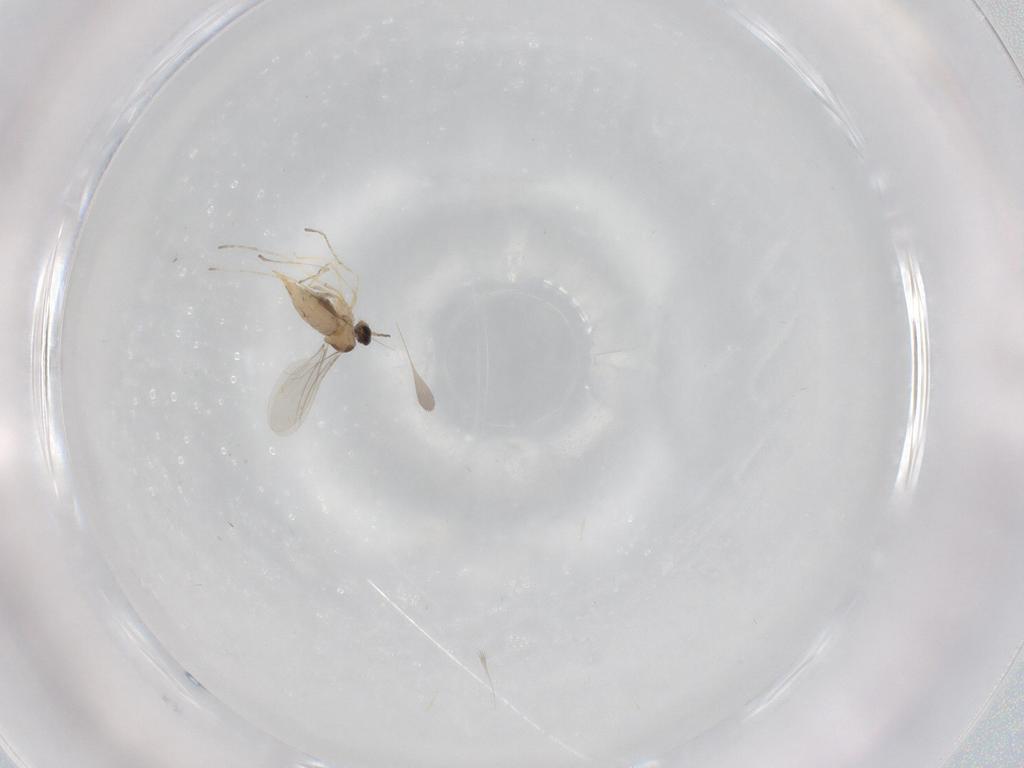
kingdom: Animalia
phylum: Arthropoda
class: Insecta
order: Diptera
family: Cecidomyiidae
